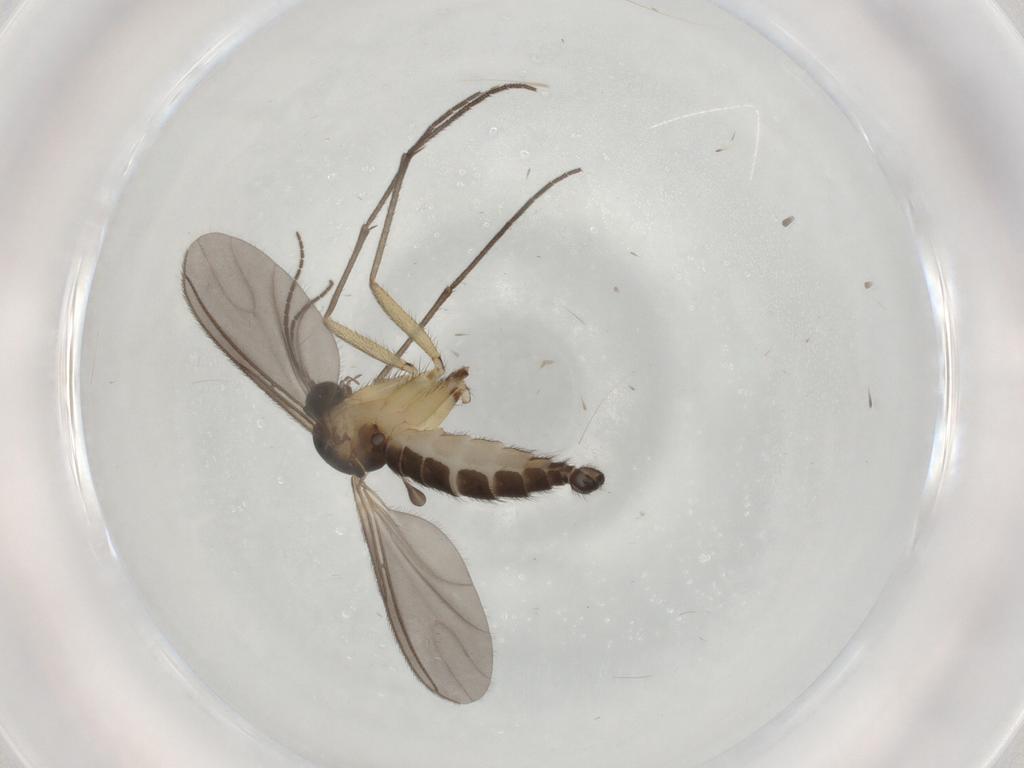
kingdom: Animalia
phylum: Arthropoda
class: Insecta
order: Diptera
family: Sciaridae
